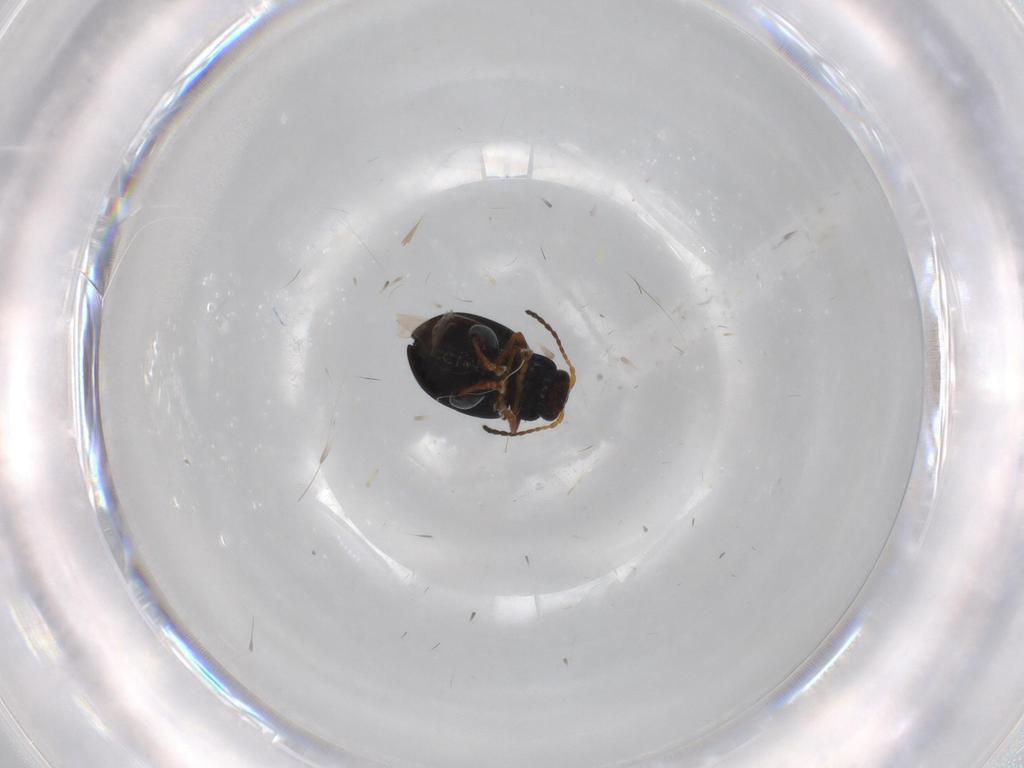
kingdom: Animalia
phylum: Arthropoda
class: Insecta
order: Coleoptera
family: Chrysomelidae
